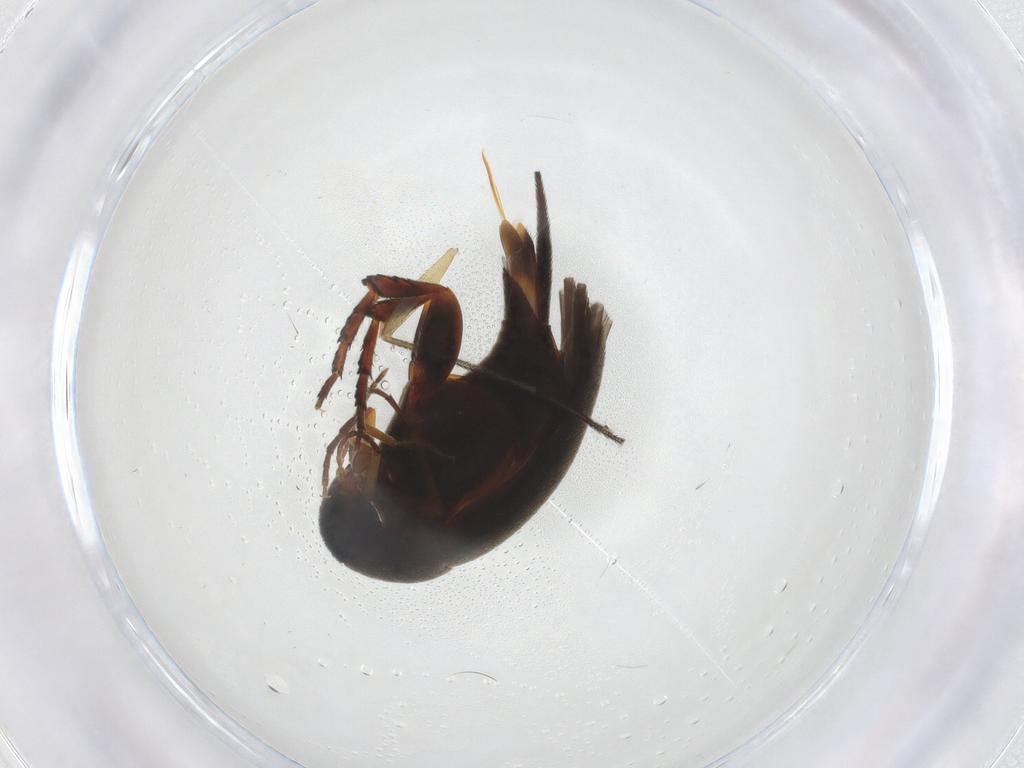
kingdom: Animalia
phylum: Arthropoda
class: Insecta
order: Coleoptera
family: Mordellidae
